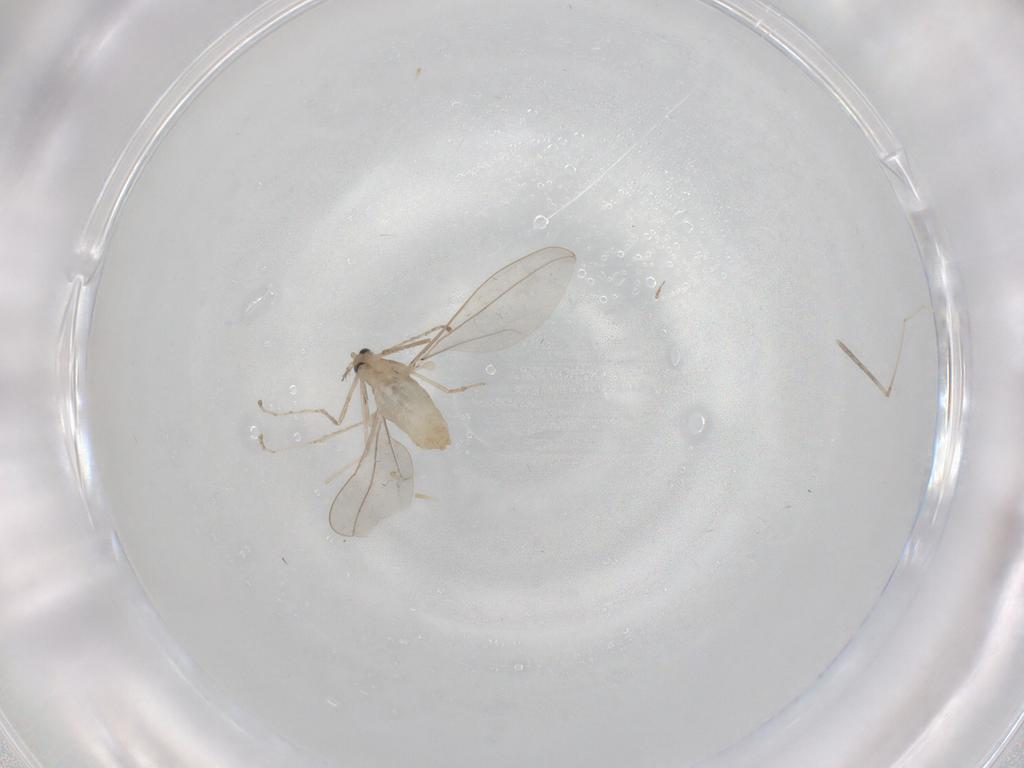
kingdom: Animalia
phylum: Arthropoda
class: Insecta
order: Diptera
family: Cecidomyiidae
